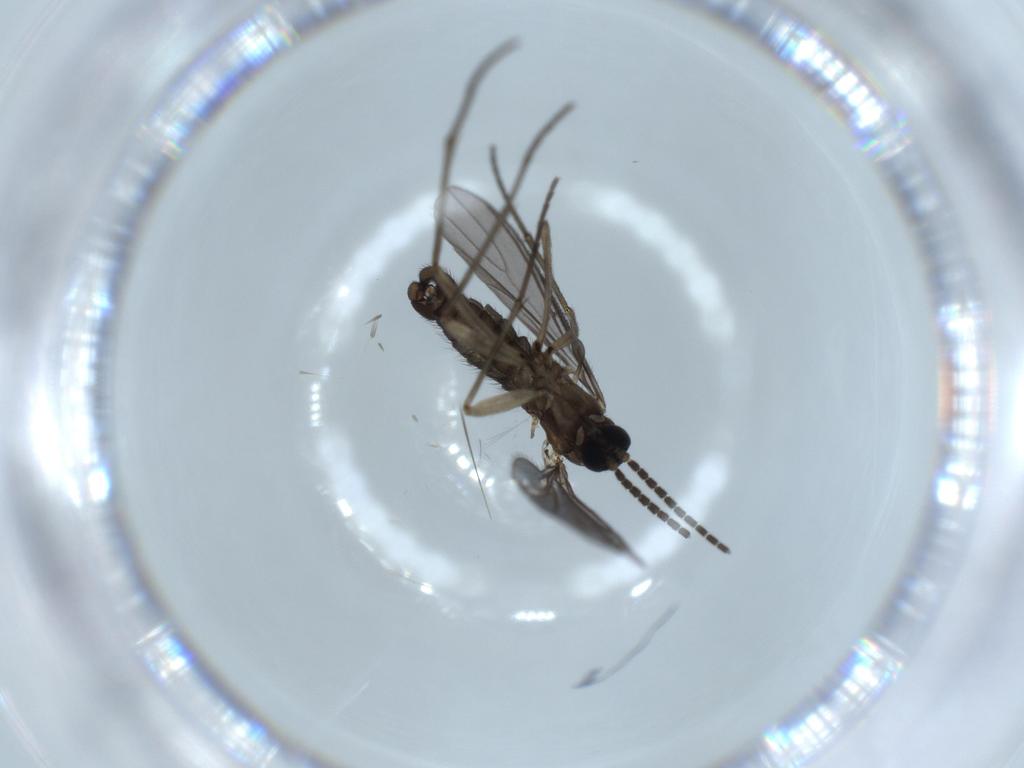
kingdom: Animalia
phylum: Arthropoda
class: Insecta
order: Diptera
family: Sciaridae
